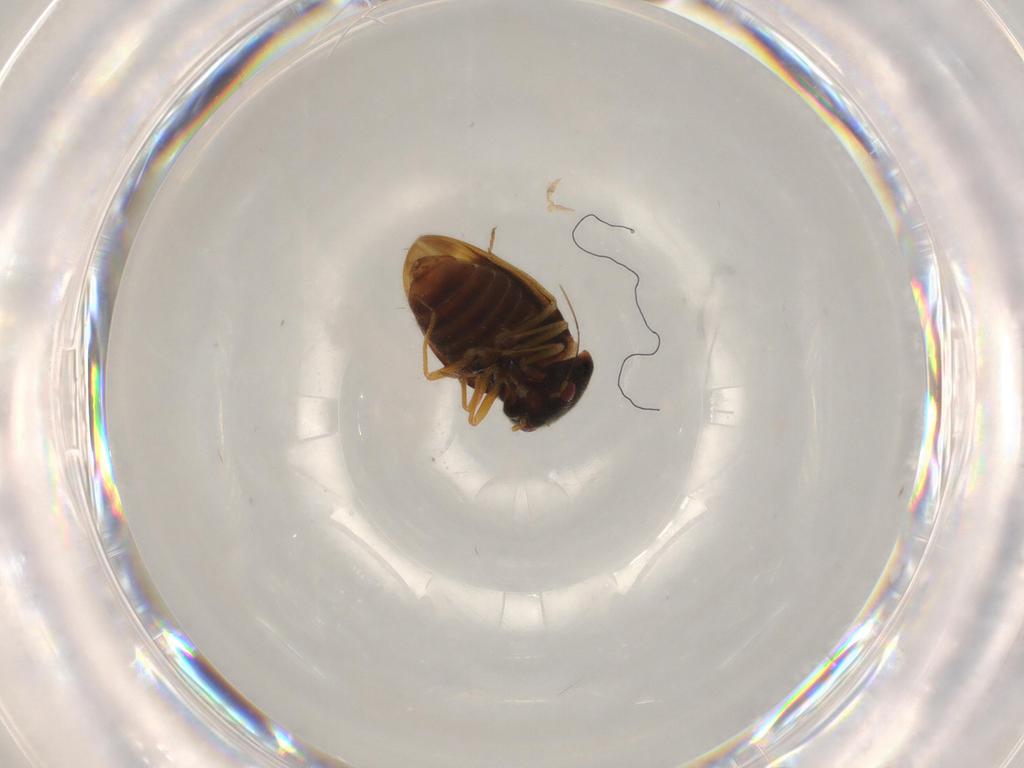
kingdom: Animalia
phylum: Arthropoda
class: Insecta
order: Coleoptera
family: Elateridae
